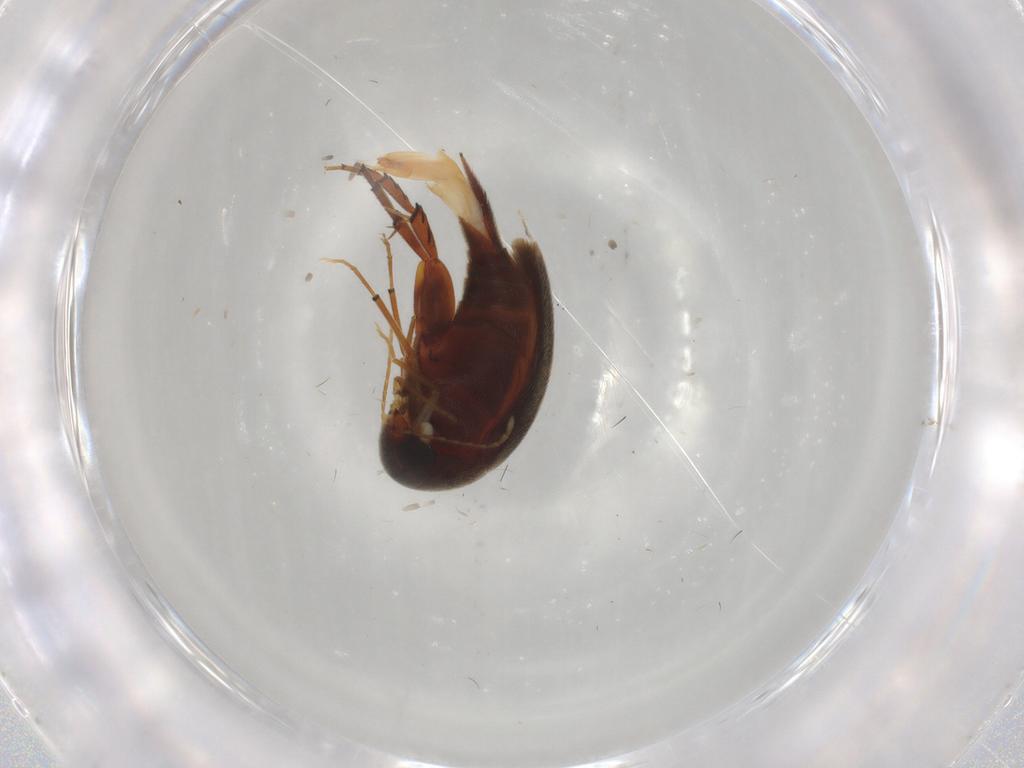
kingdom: Animalia
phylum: Arthropoda
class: Insecta
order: Coleoptera
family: Mordellidae
